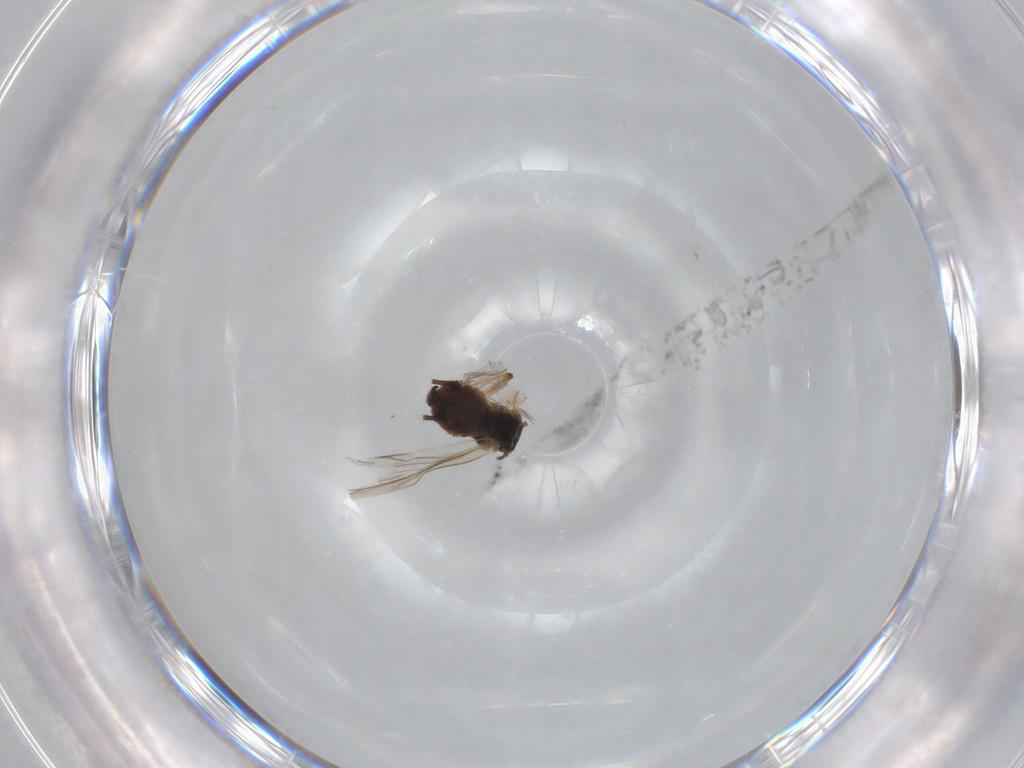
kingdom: Animalia
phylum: Arthropoda
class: Insecta
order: Hemiptera
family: Aphididae
